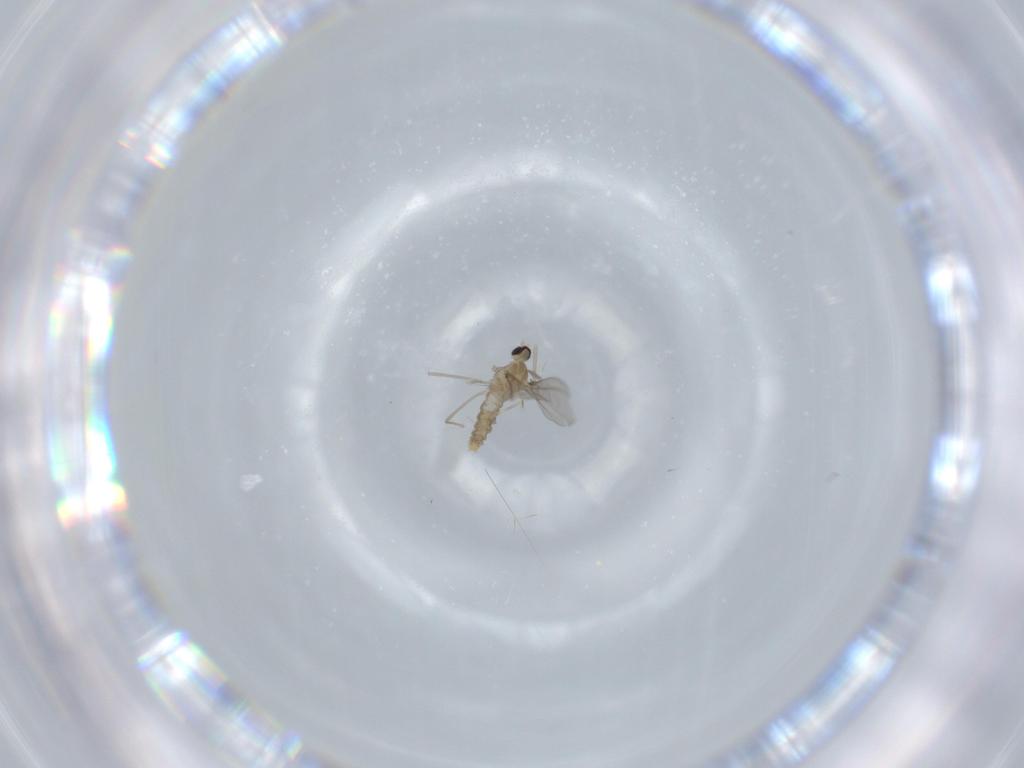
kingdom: Animalia
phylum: Arthropoda
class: Insecta
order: Diptera
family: Cecidomyiidae
